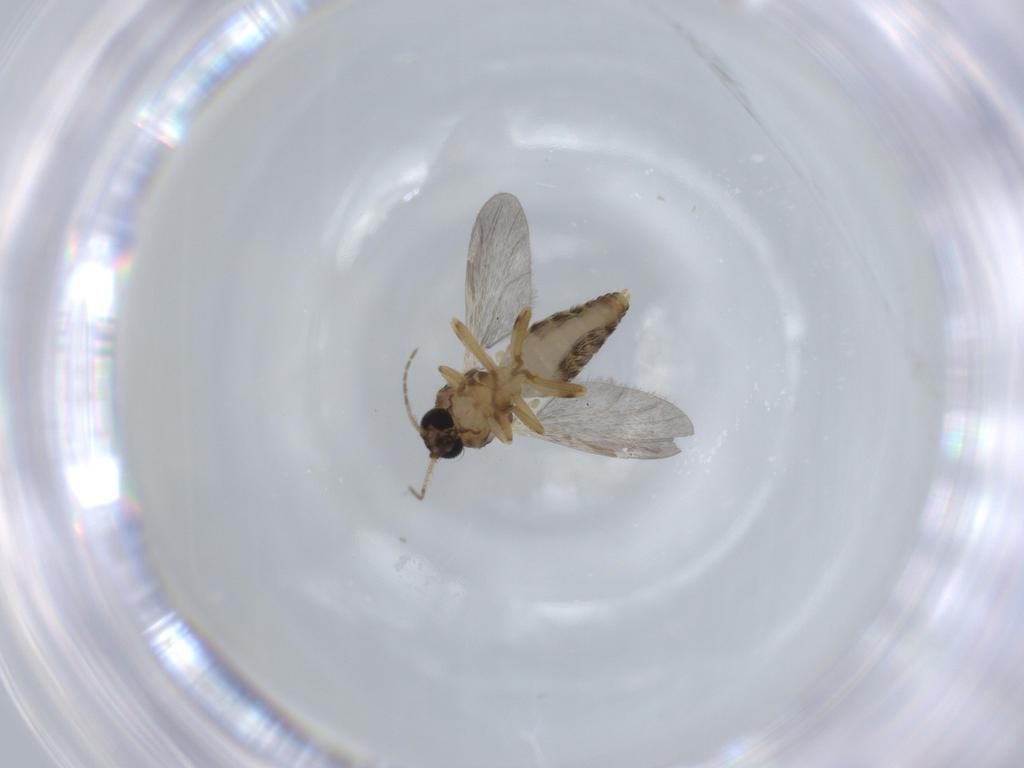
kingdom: Animalia
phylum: Arthropoda
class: Insecta
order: Diptera
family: Ceratopogonidae
